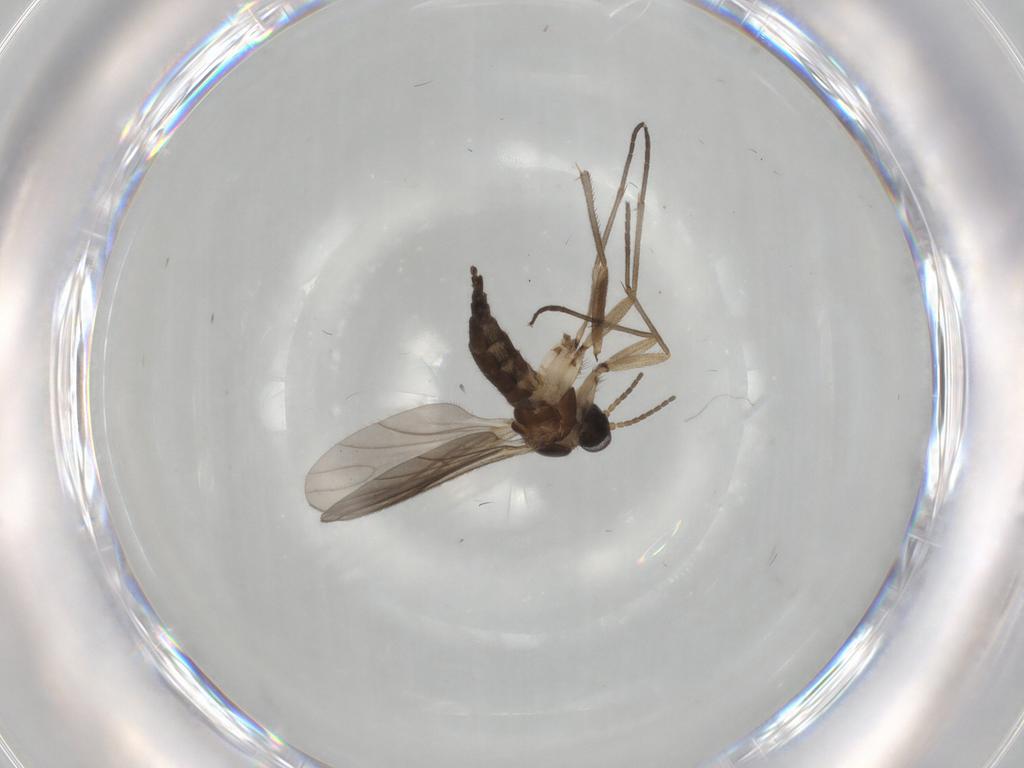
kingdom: Animalia
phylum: Arthropoda
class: Insecta
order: Diptera
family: Sciaridae
